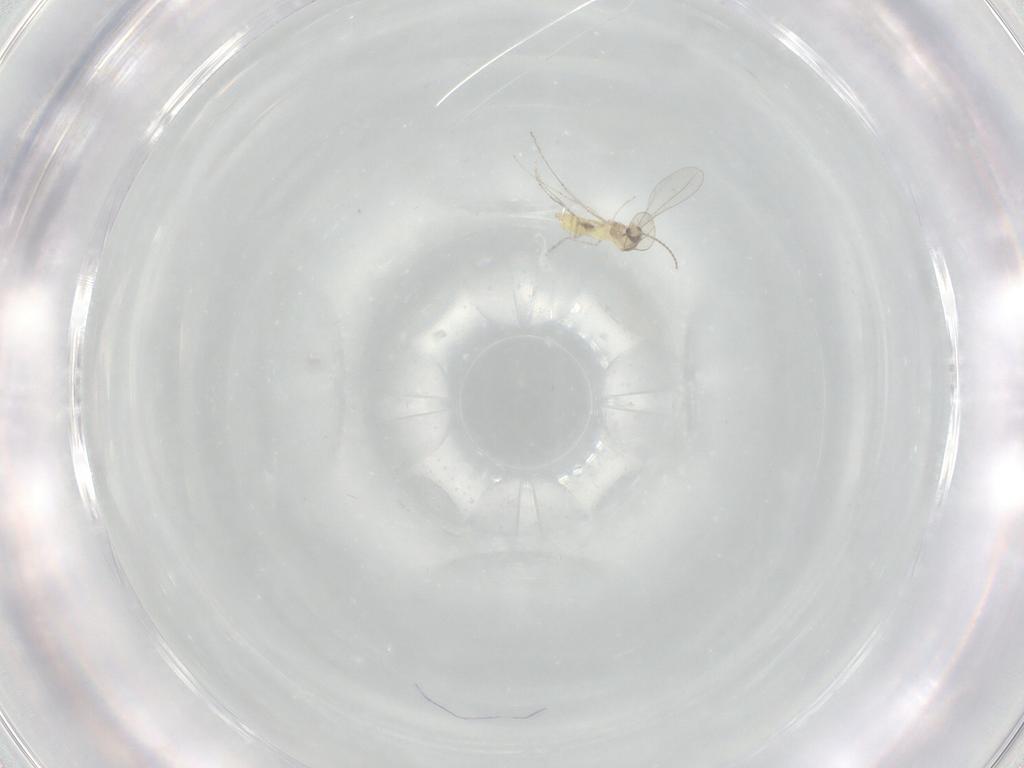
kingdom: Animalia
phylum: Arthropoda
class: Insecta
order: Diptera
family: Cecidomyiidae
